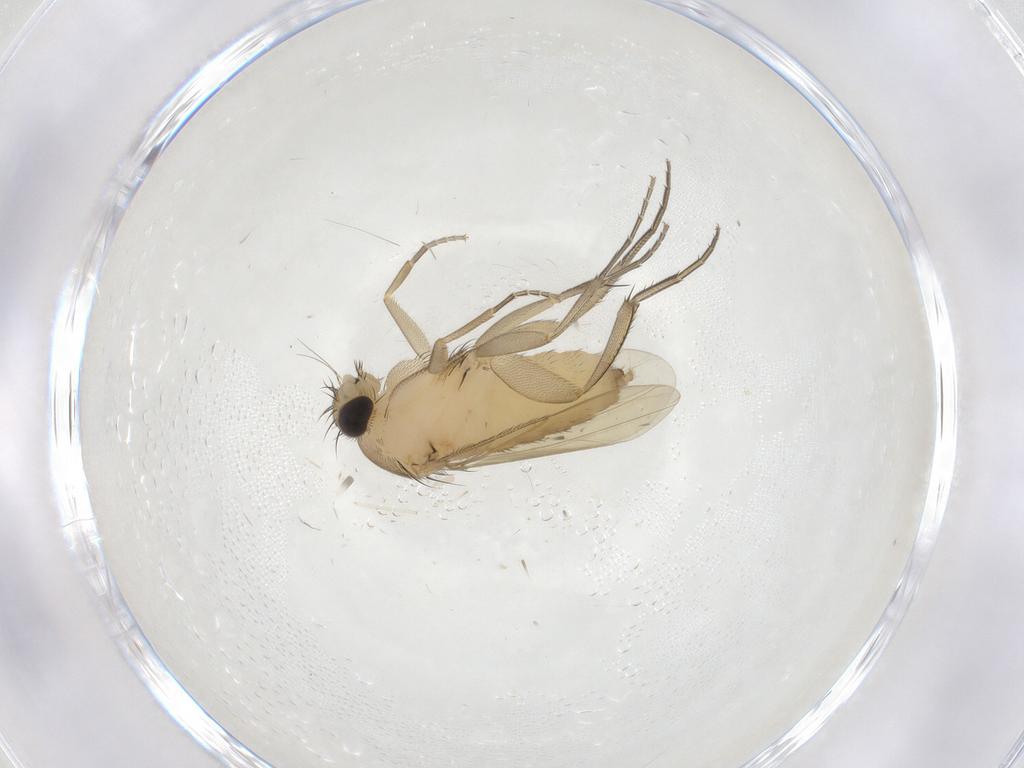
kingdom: Animalia
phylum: Arthropoda
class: Insecta
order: Diptera
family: Phoridae
